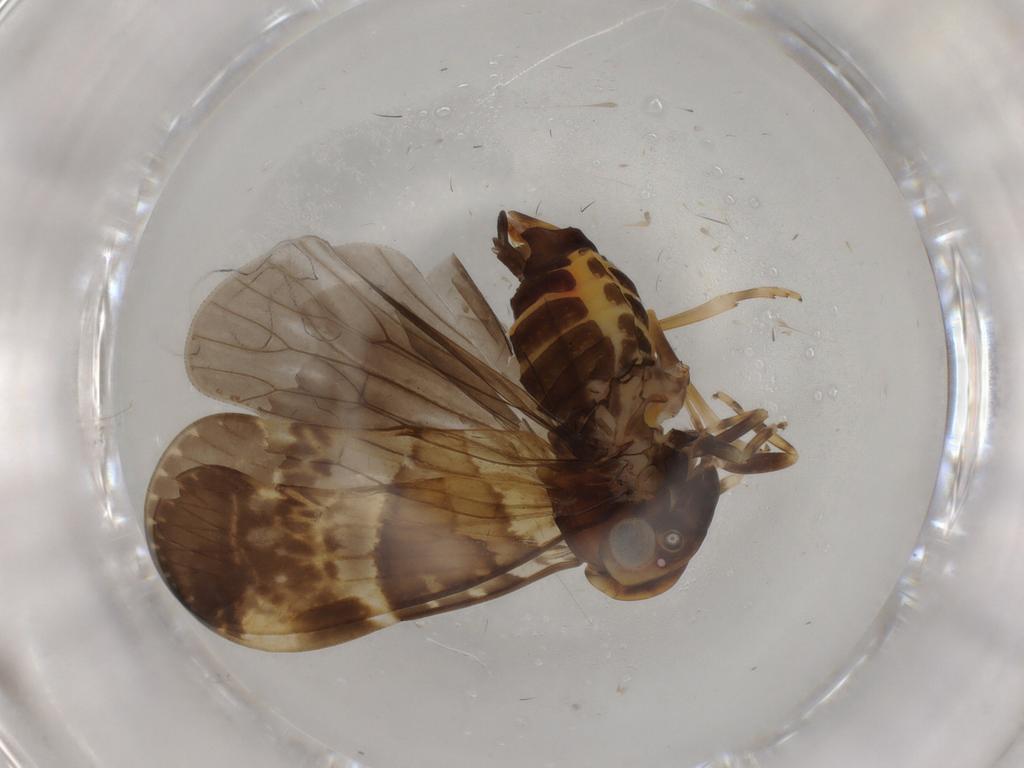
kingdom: Animalia
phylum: Arthropoda
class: Insecta
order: Hemiptera
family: Cixiidae
